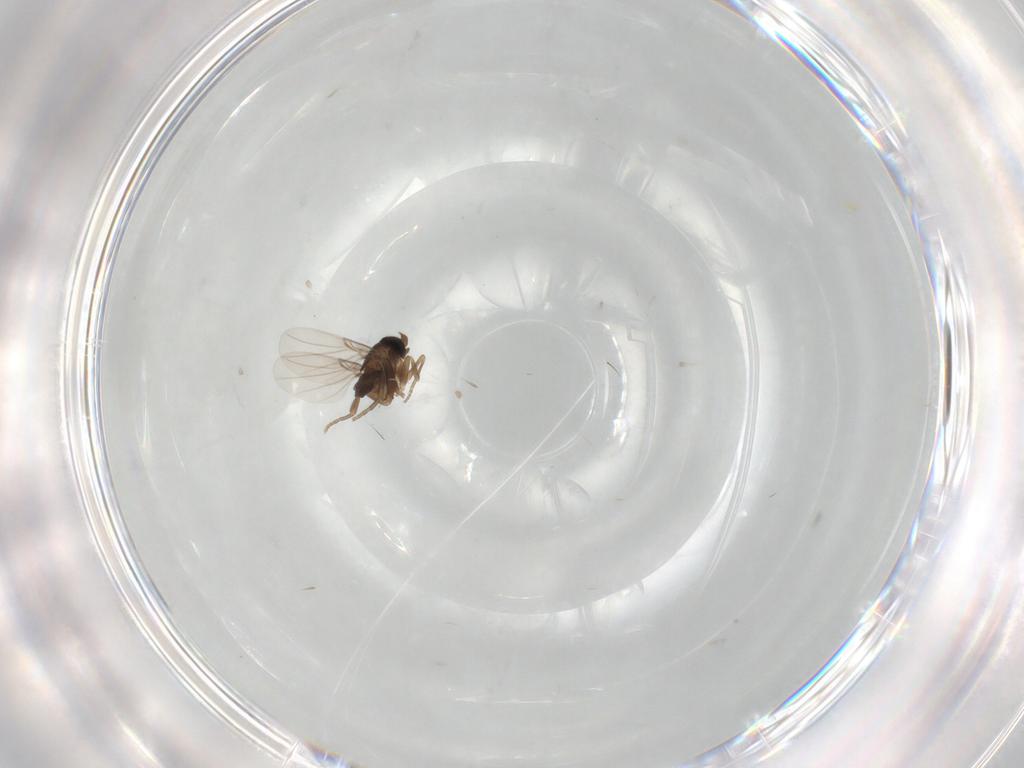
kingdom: Animalia
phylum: Arthropoda
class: Insecta
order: Diptera
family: Phoridae
